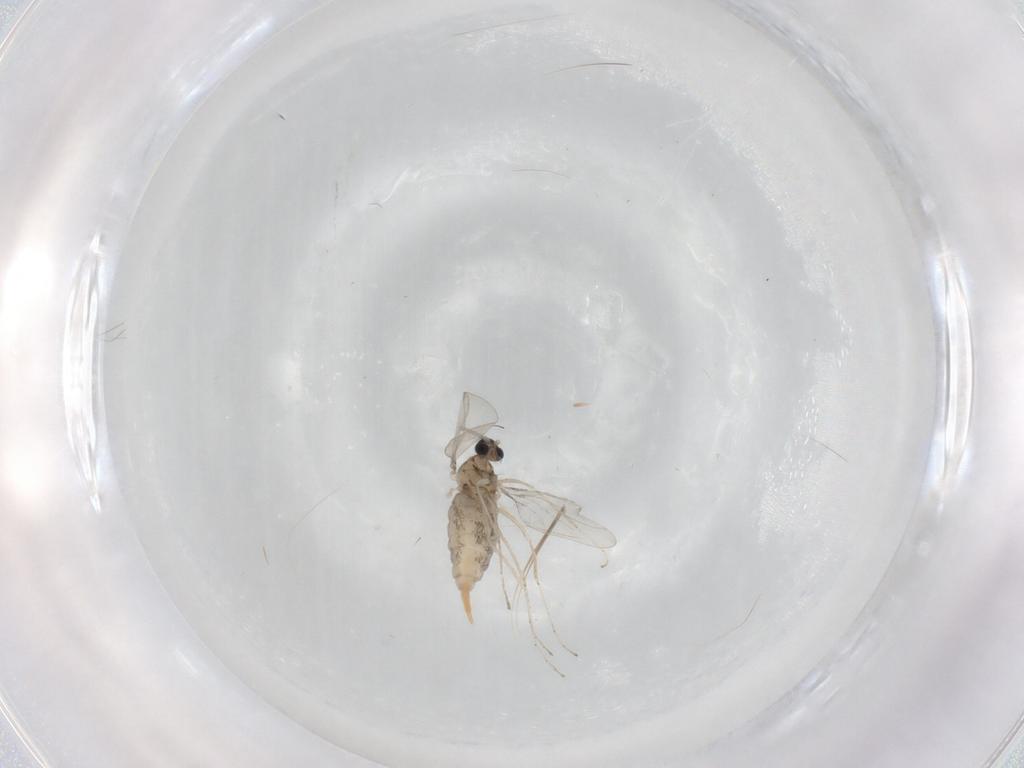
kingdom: Animalia
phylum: Arthropoda
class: Insecta
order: Diptera
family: Cecidomyiidae
